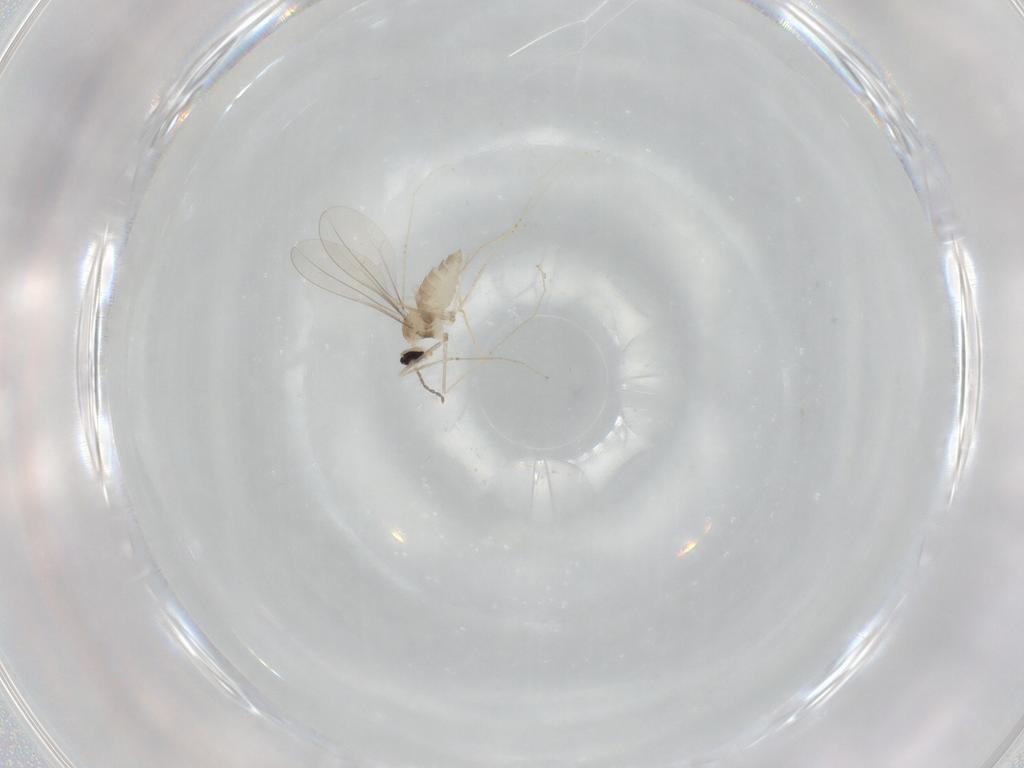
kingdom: Animalia
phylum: Arthropoda
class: Insecta
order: Diptera
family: Cecidomyiidae
